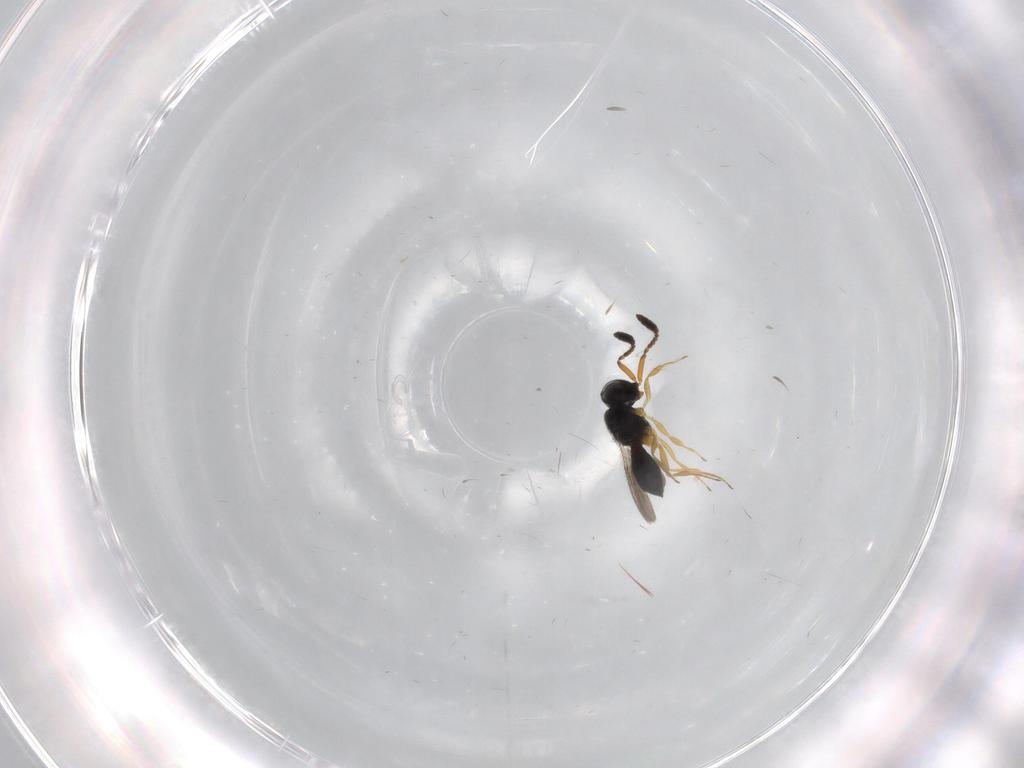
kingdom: Animalia
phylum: Arthropoda
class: Insecta
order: Hymenoptera
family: Scelionidae
